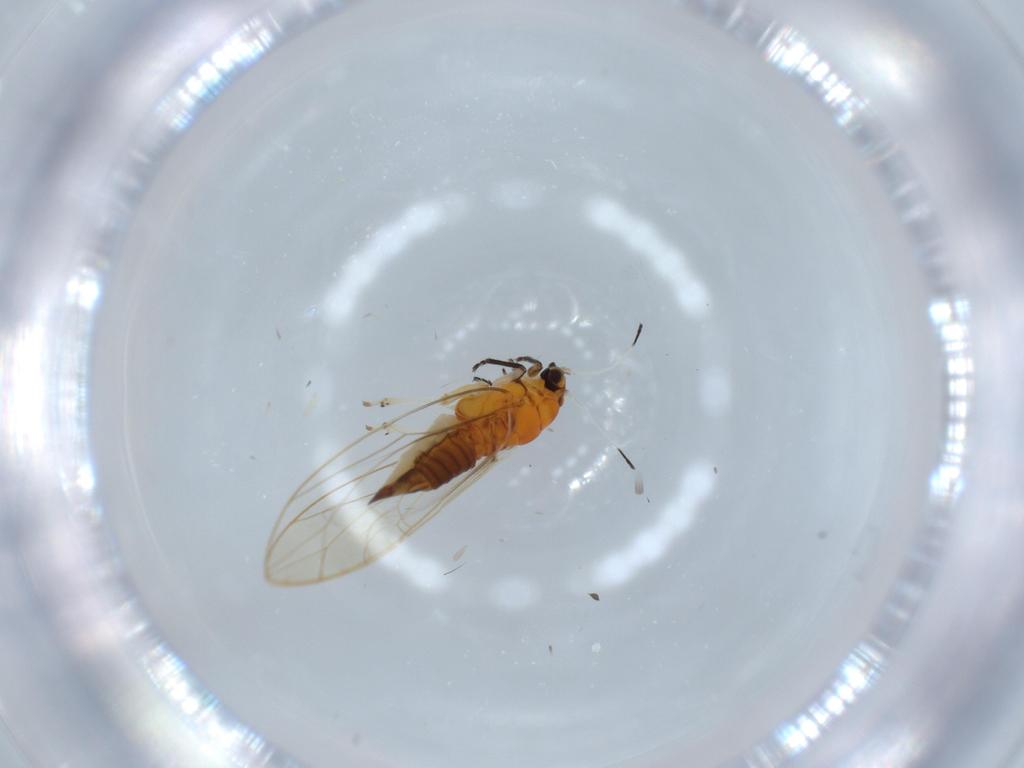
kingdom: Animalia
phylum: Arthropoda
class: Insecta
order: Hemiptera
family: Triozidae
